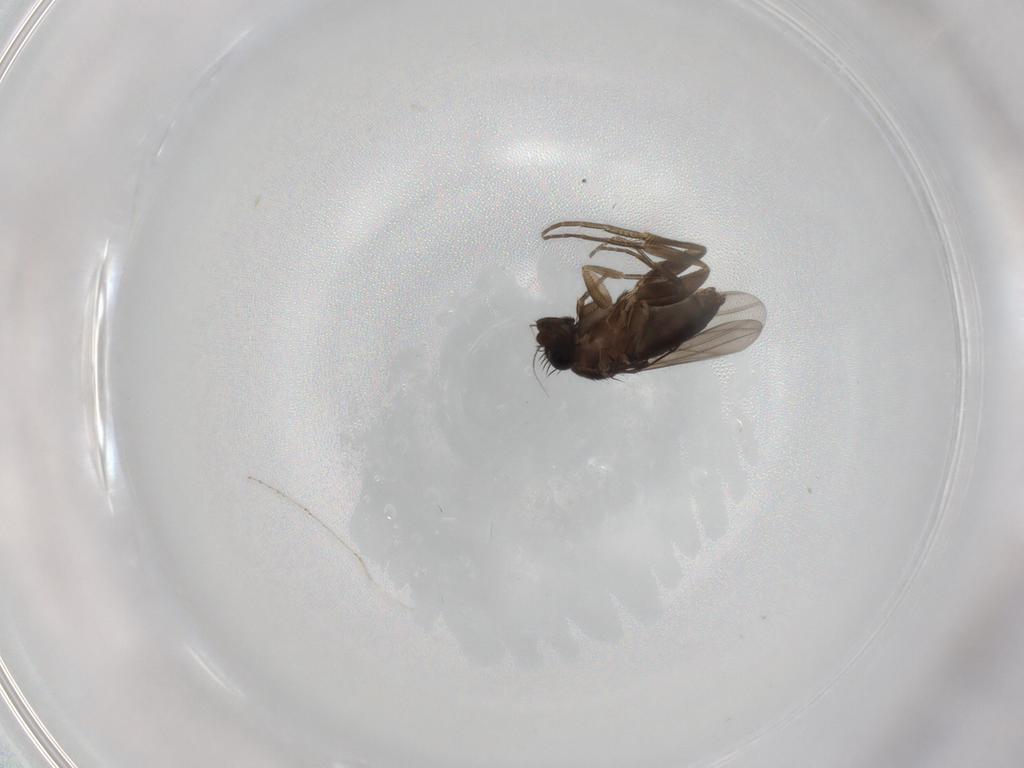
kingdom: Animalia
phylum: Arthropoda
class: Insecta
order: Diptera
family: Phoridae
